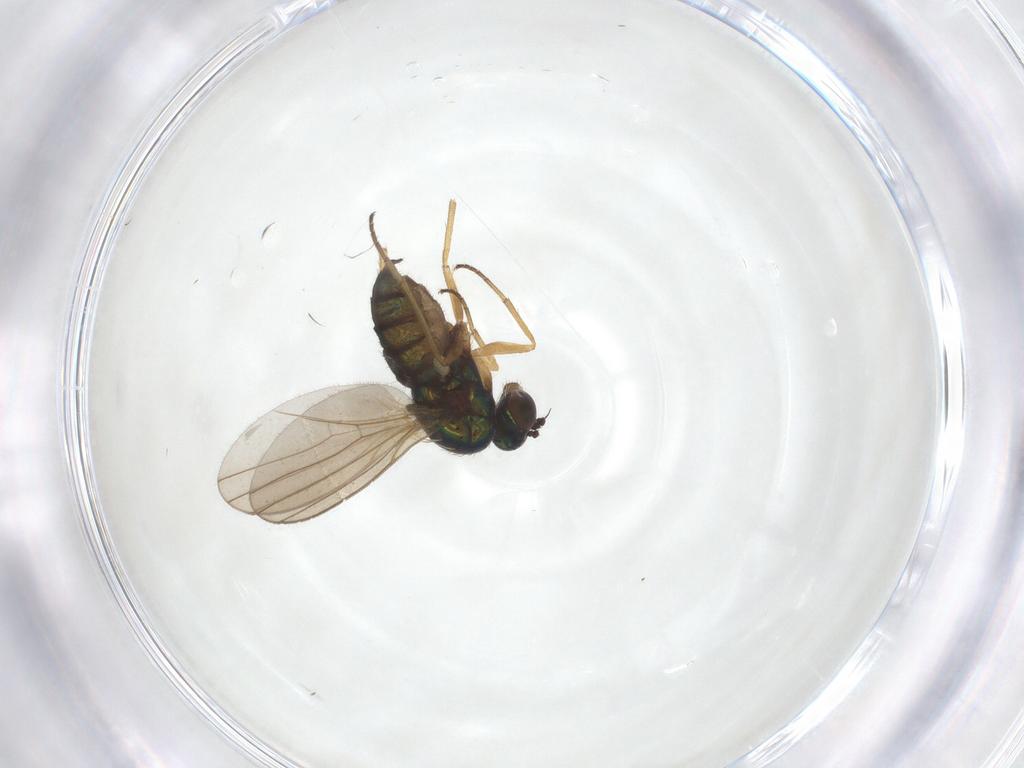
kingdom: Animalia
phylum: Arthropoda
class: Insecta
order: Diptera
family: Dolichopodidae
